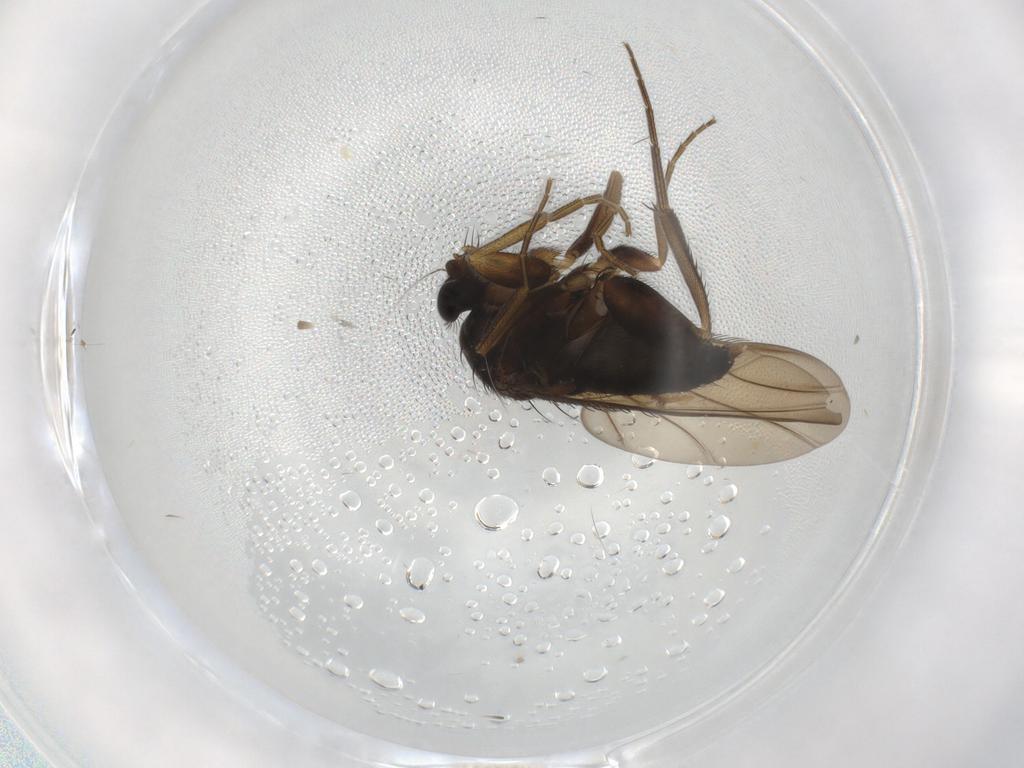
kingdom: Animalia
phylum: Arthropoda
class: Insecta
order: Diptera
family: Phoridae
